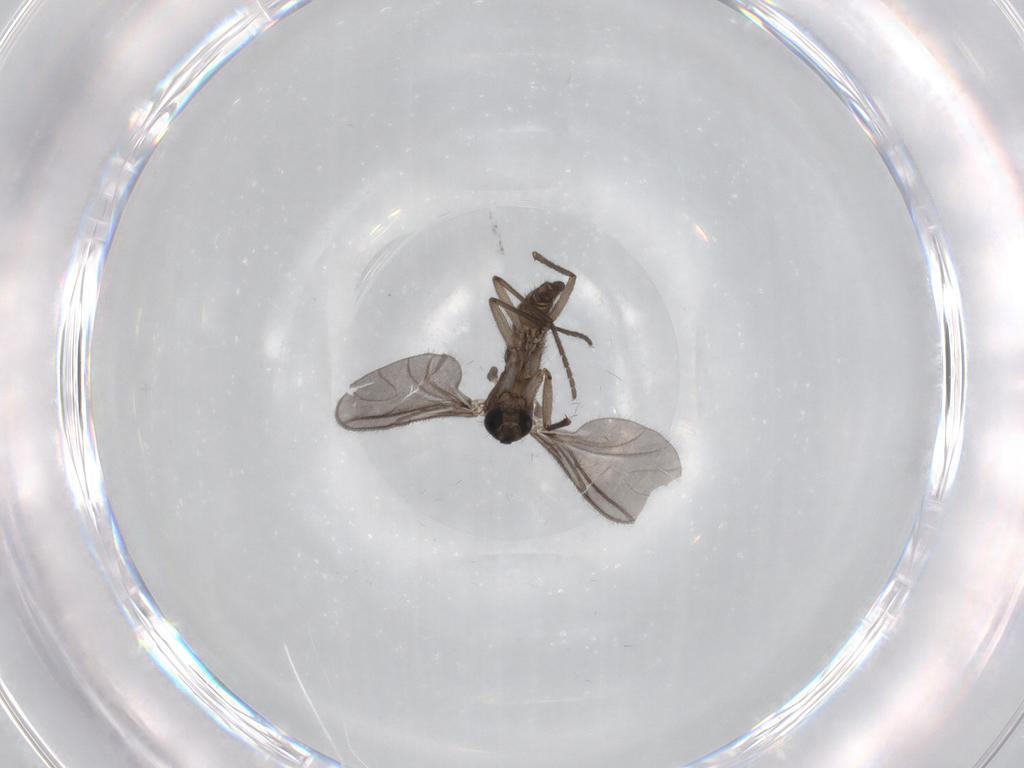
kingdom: Animalia
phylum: Arthropoda
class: Insecta
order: Diptera
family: Sciaridae
